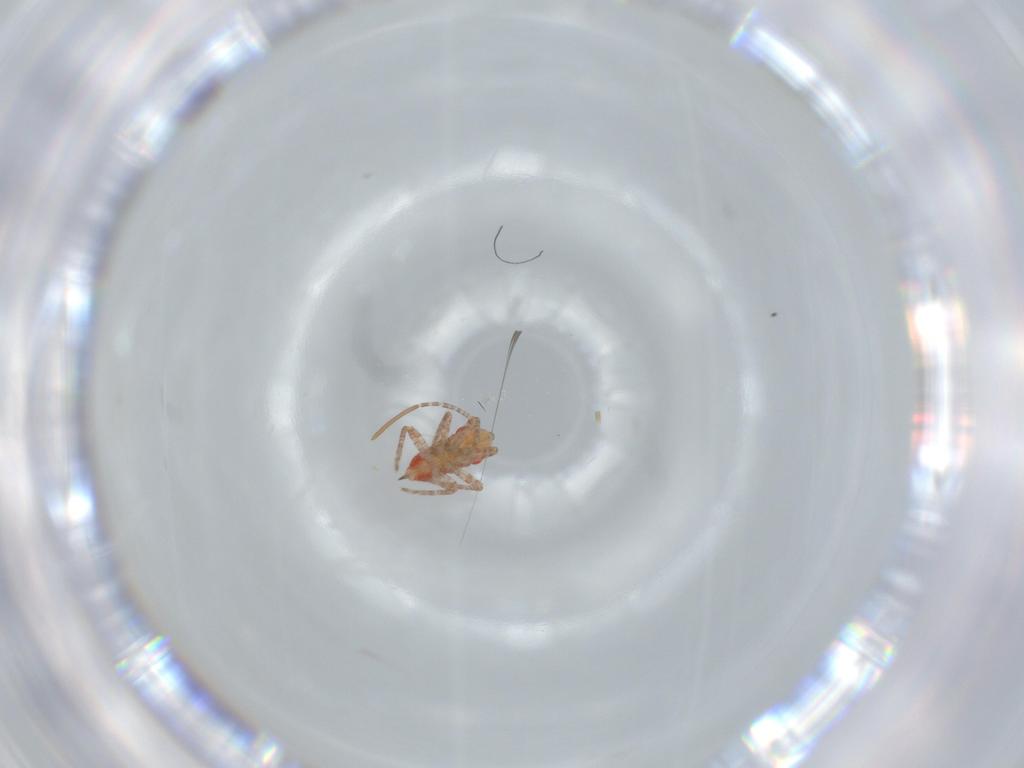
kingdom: Animalia
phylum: Arthropoda
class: Insecta
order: Hemiptera
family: Miridae
